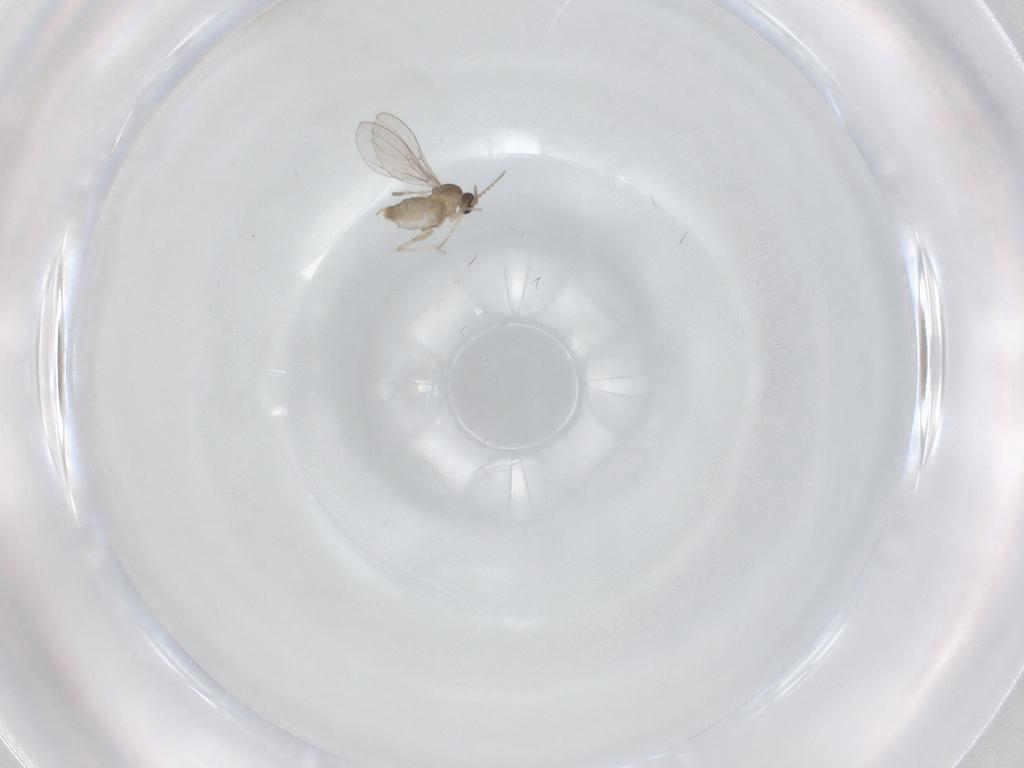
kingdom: Animalia
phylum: Arthropoda
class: Insecta
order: Diptera
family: Cecidomyiidae
